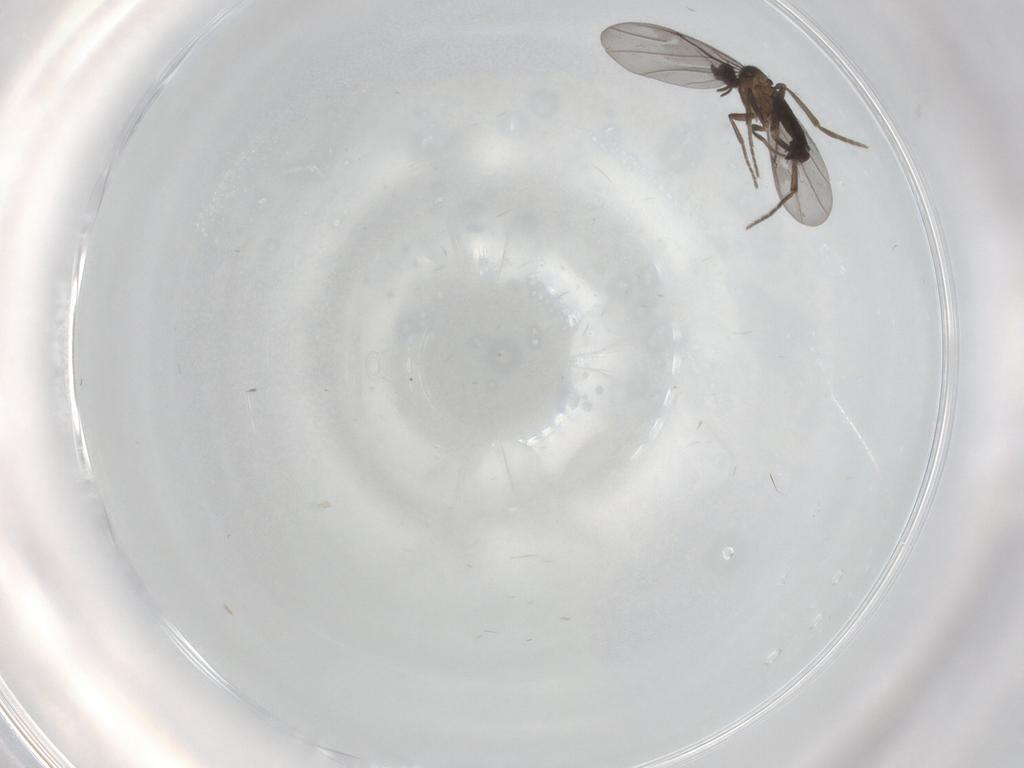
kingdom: Animalia
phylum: Arthropoda
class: Insecta
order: Diptera
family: Phoridae
